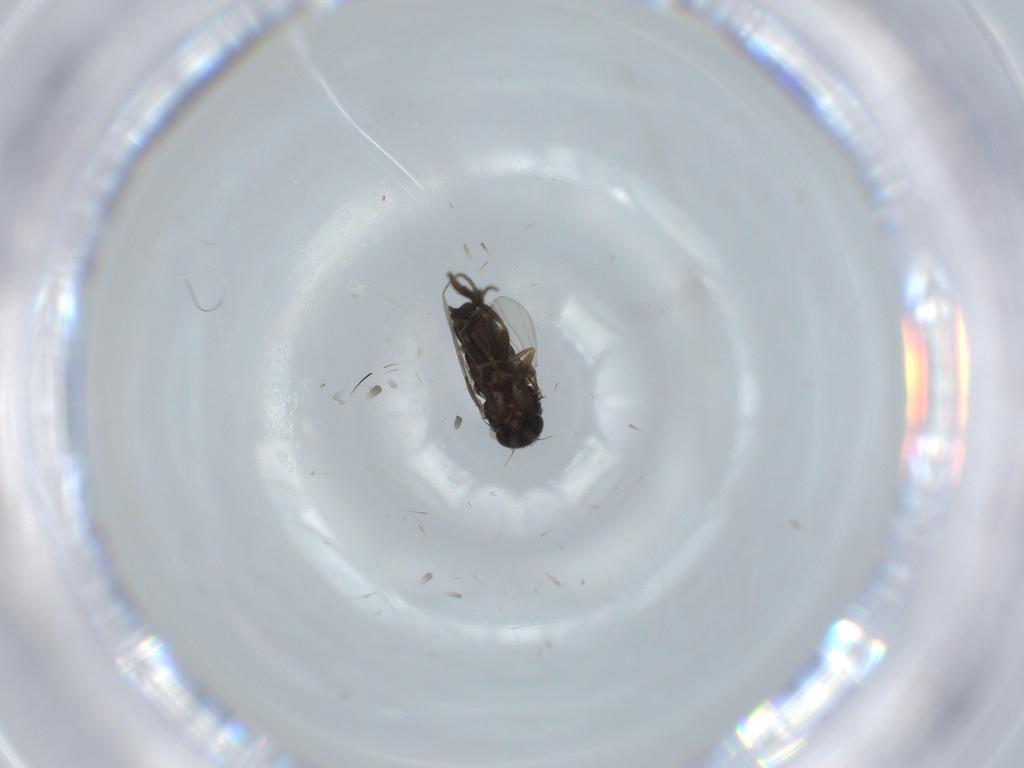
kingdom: Animalia
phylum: Arthropoda
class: Insecta
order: Diptera
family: Phoridae
